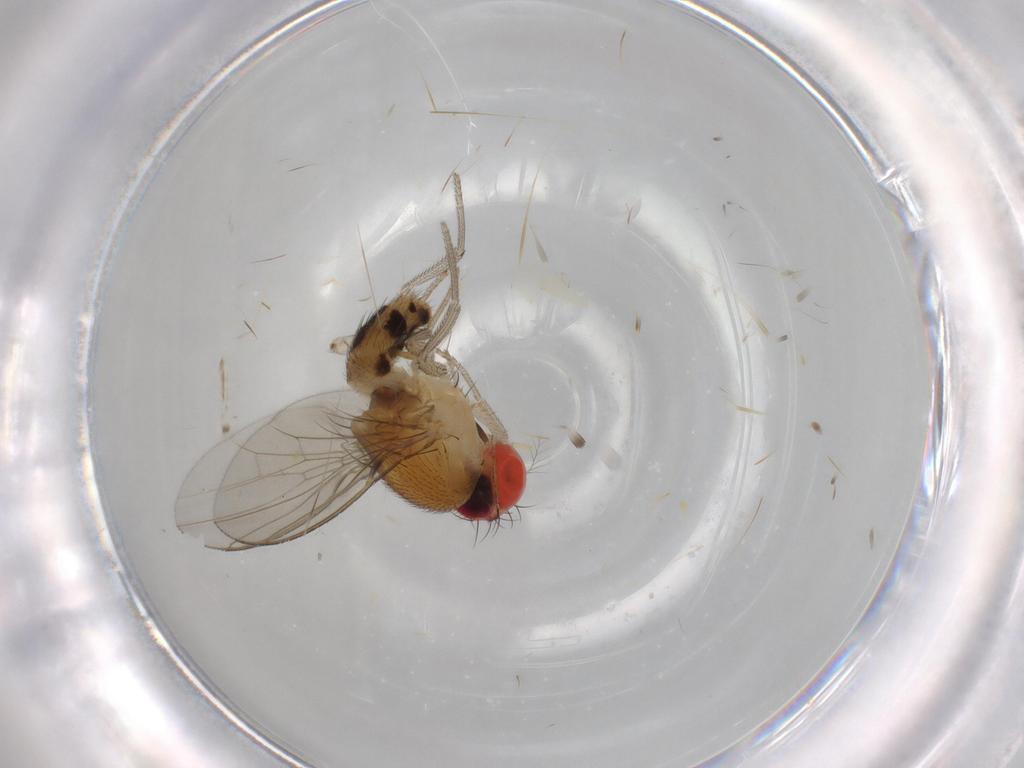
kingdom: Animalia
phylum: Arthropoda
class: Insecta
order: Diptera
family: Drosophilidae
